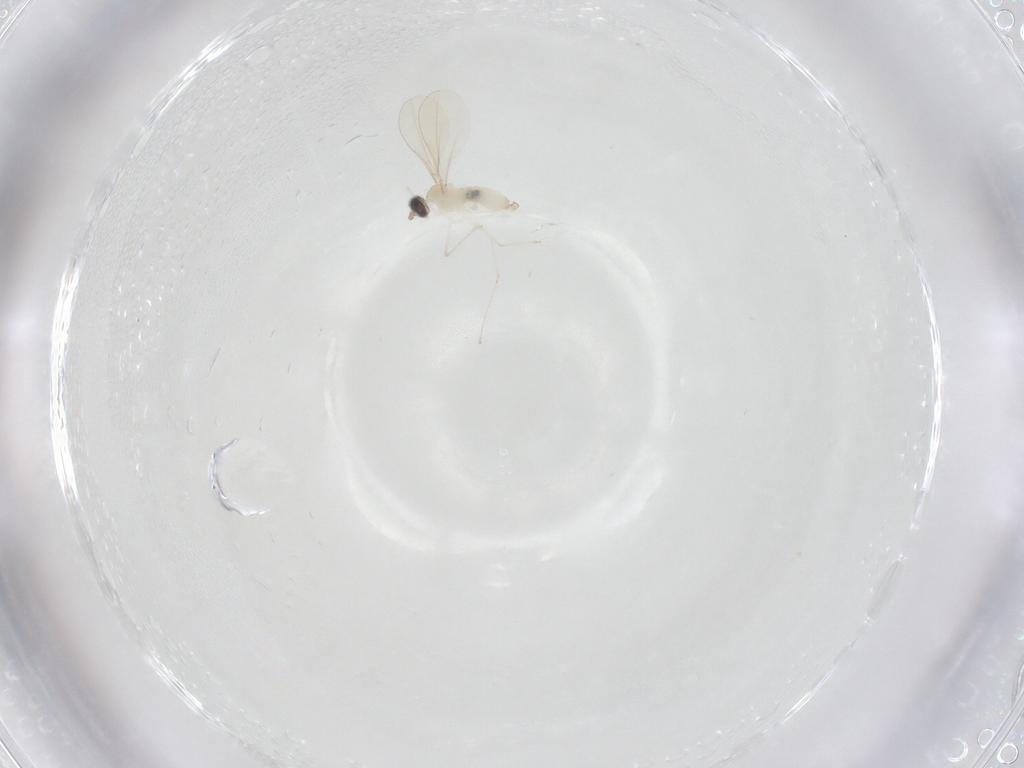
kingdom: Animalia
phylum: Arthropoda
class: Insecta
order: Diptera
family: Cecidomyiidae
